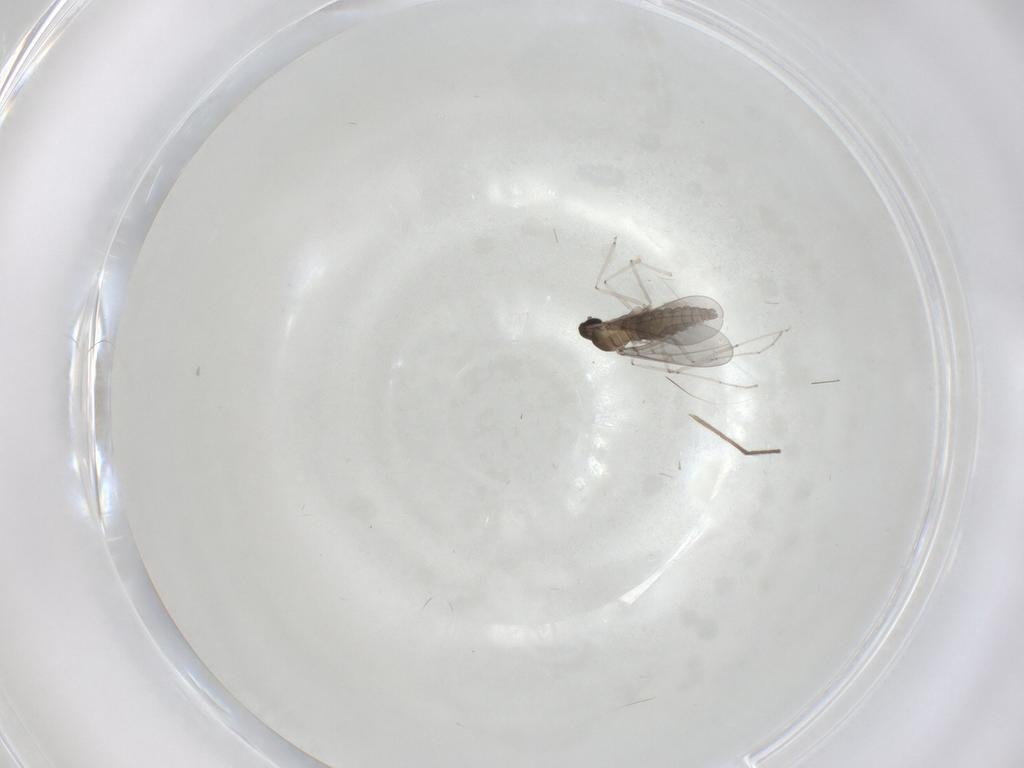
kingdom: Animalia
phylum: Arthropoda
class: Insecta
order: Diptera
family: Cecidomyiidae
